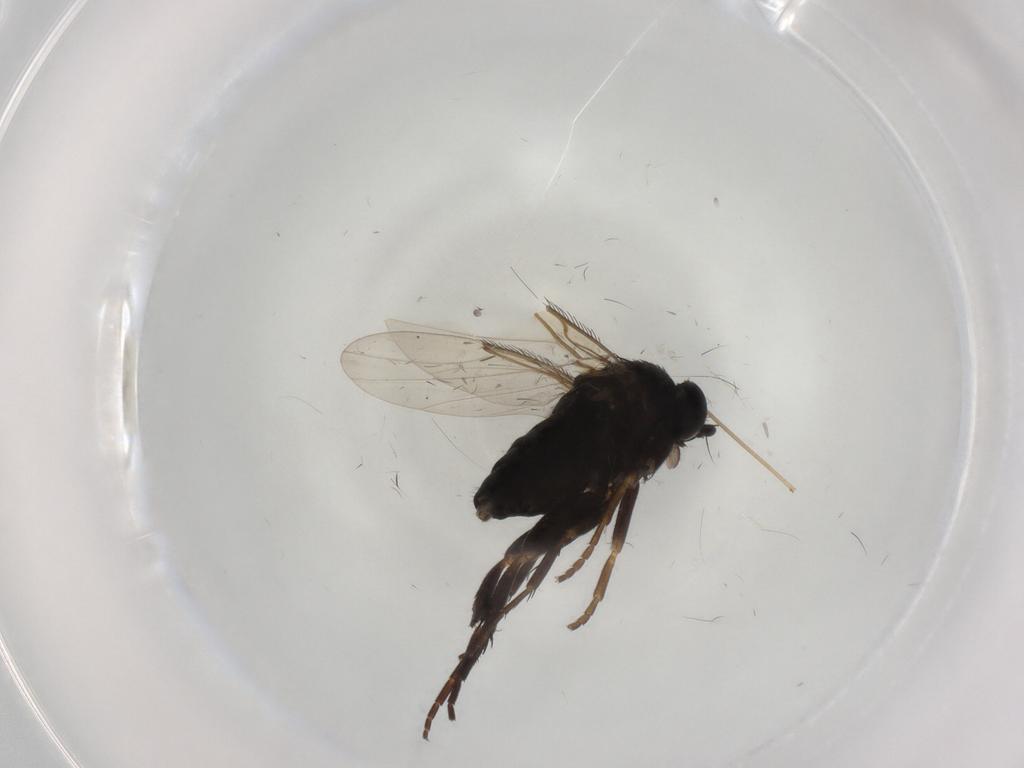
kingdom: Animalia
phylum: Arthropoda
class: Insecta
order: Diptera
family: Phoridae
